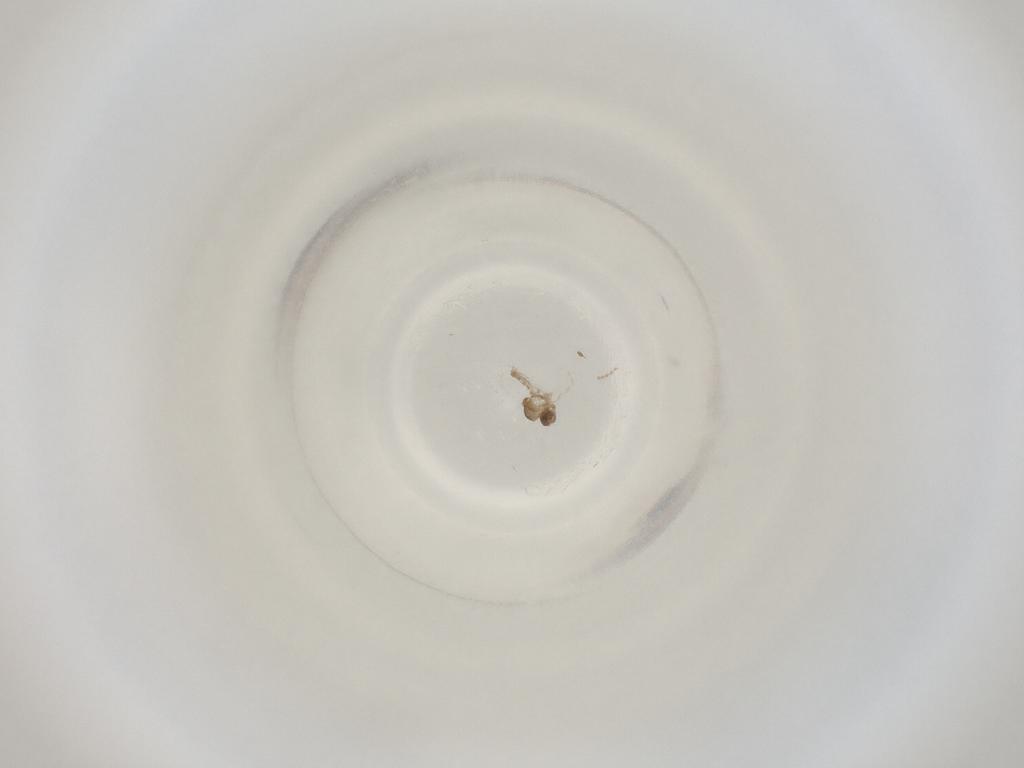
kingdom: Animalia
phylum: Arthropoda
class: Insecta
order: Diptera
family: Cecidomyiidae
